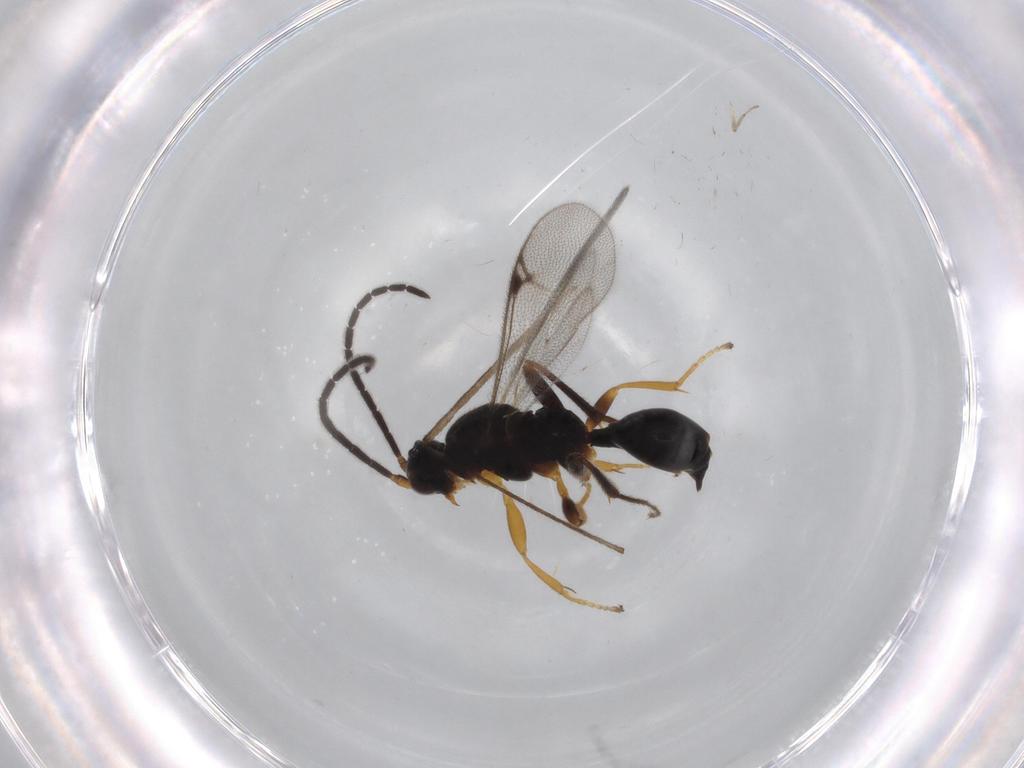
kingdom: Animalia
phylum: Arthropoda
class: Insecta
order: Hymenoptera
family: Proctotrupidae
